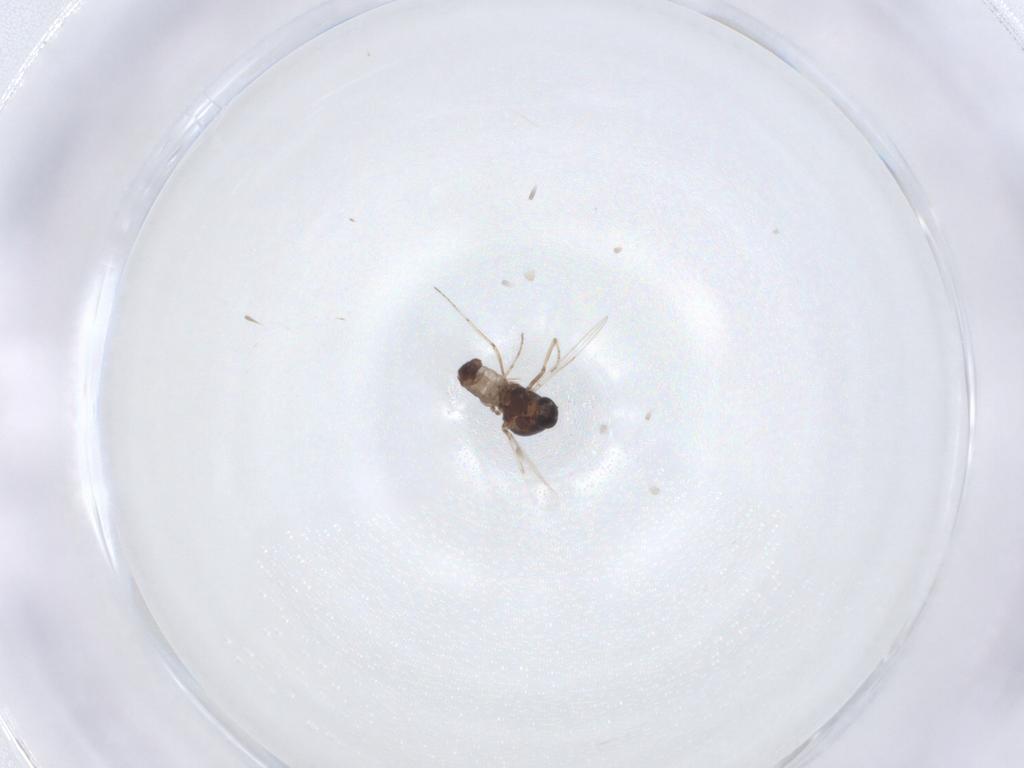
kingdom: Animalia
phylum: Arthropoda
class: Insecta
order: Diptera
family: Ceratopogonidae
